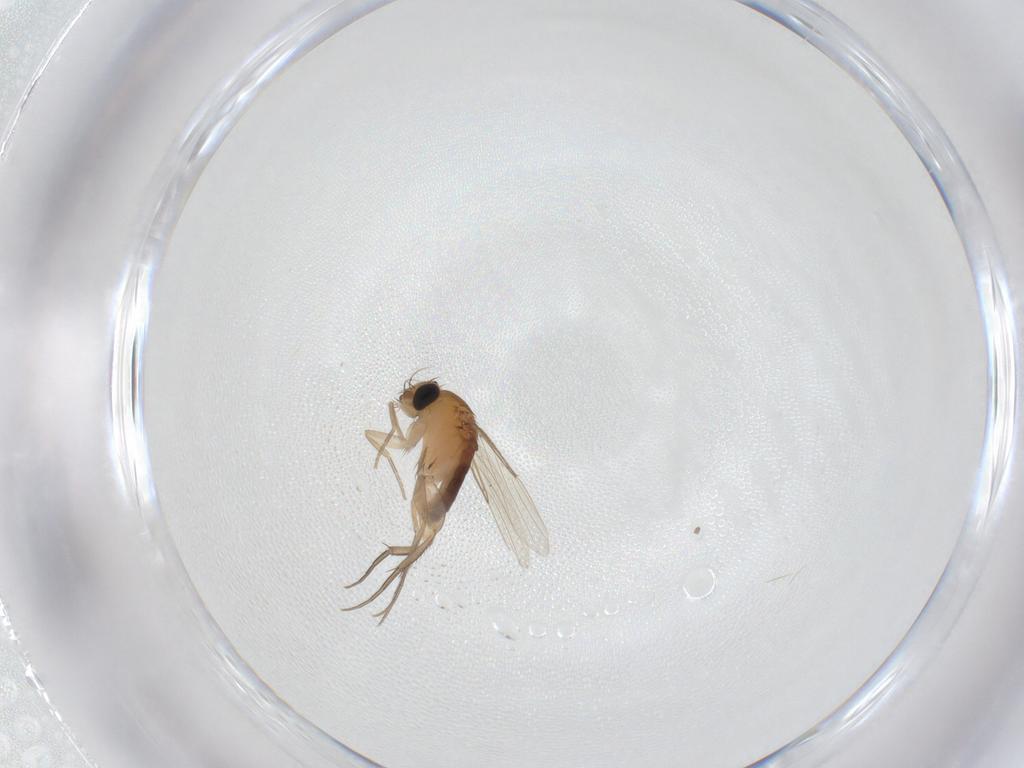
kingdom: Animalia
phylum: Arthropoda
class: Insecta
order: Diptera
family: Phoridae
